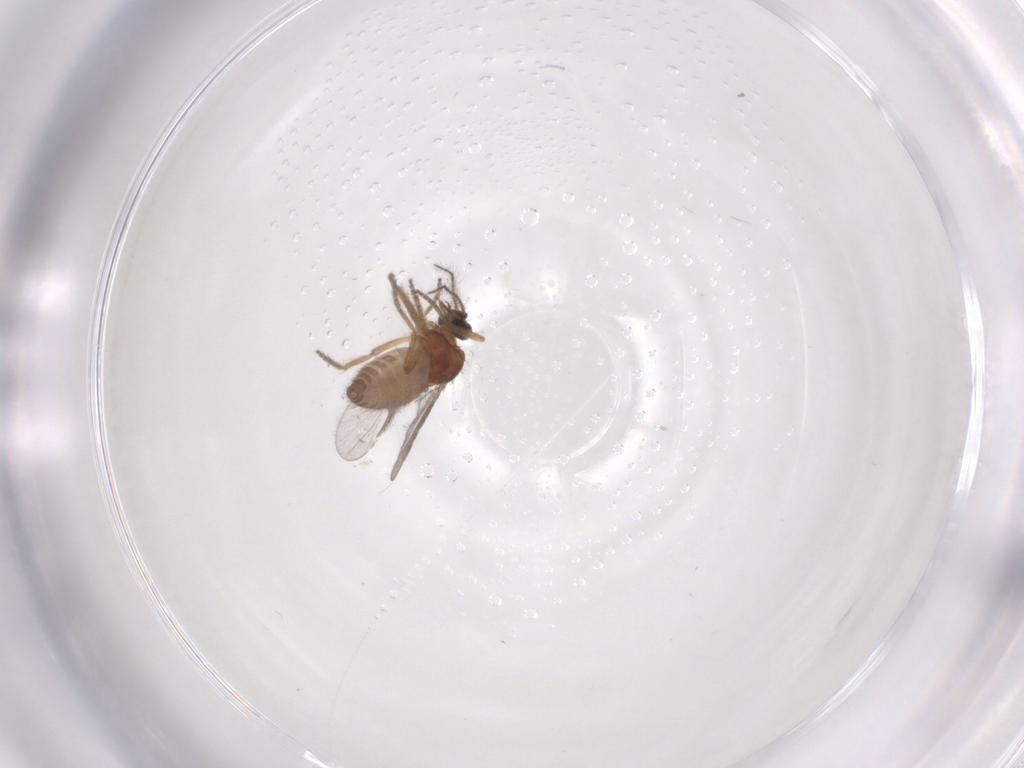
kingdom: Animalia
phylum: Arthropoda
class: Insecta
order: Diptera
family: Ceratopogonidae
